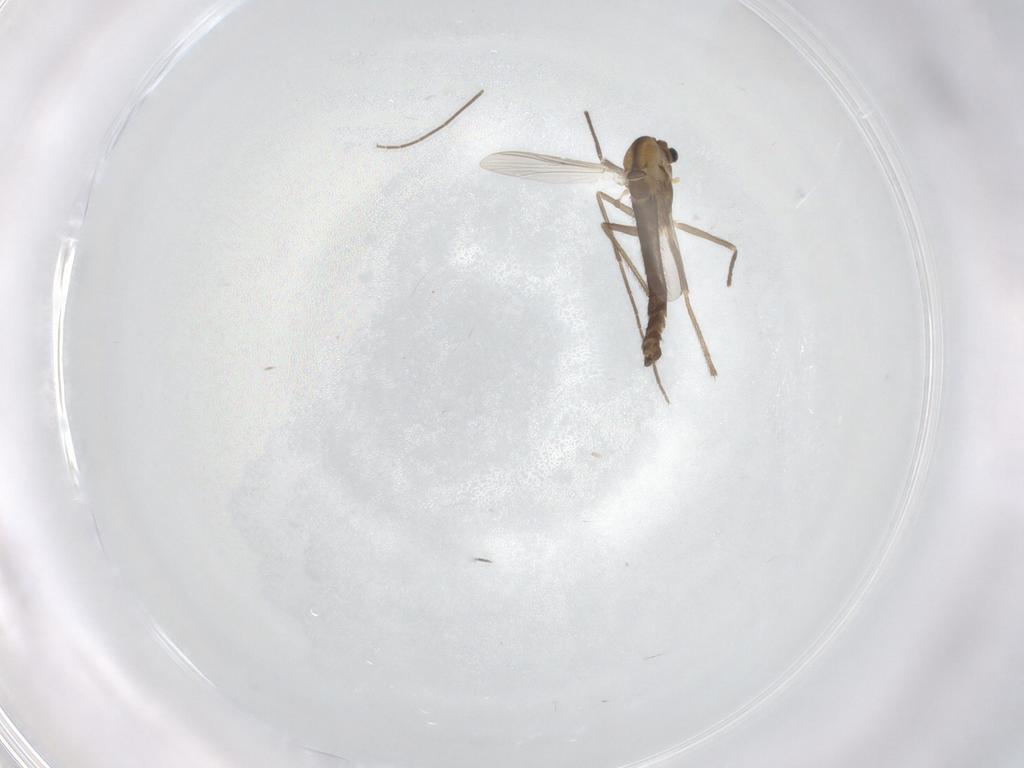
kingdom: Animalia
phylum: Arthropoda
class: Insecta
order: Diptera
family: Chironomidae
